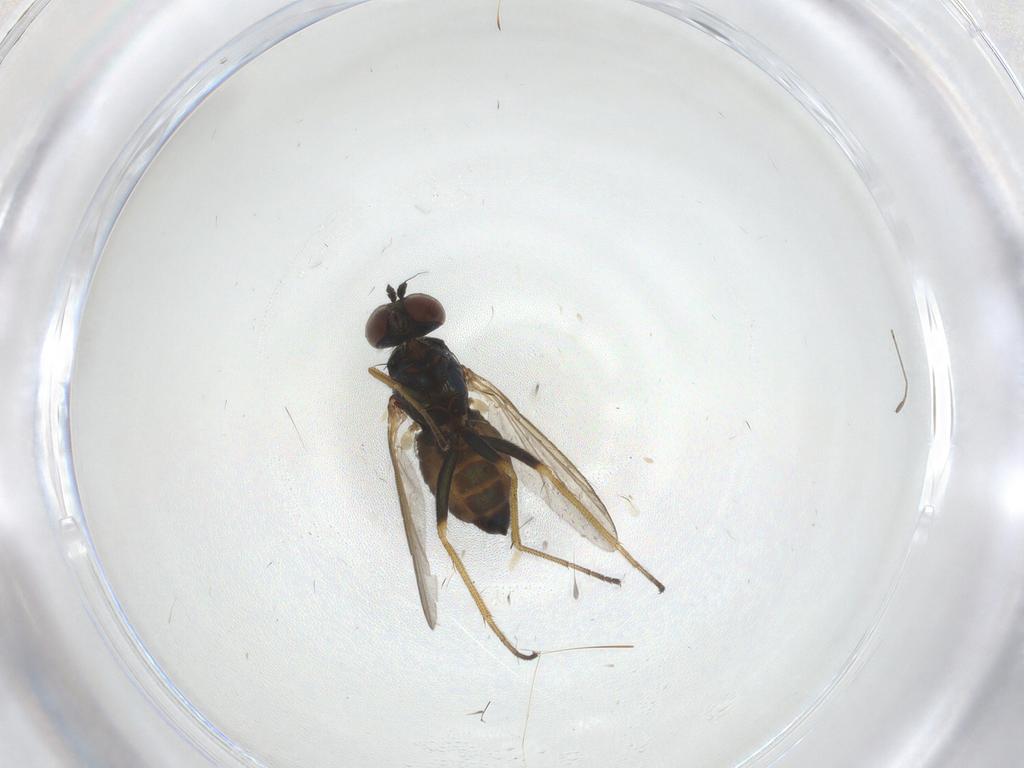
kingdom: Animalia
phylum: Arthropoda
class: Insecta
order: Diptera
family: Dolichopodidae
